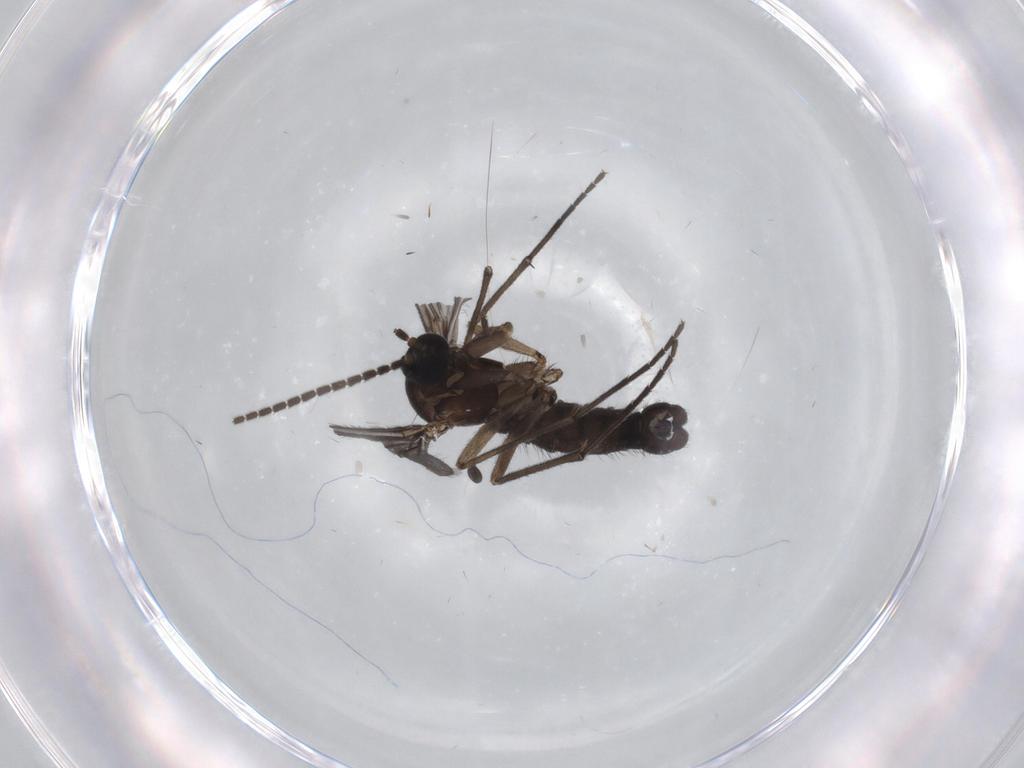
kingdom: Animalia
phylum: Arthropoda
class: Insecta
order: Diptera
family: Sciaridae
